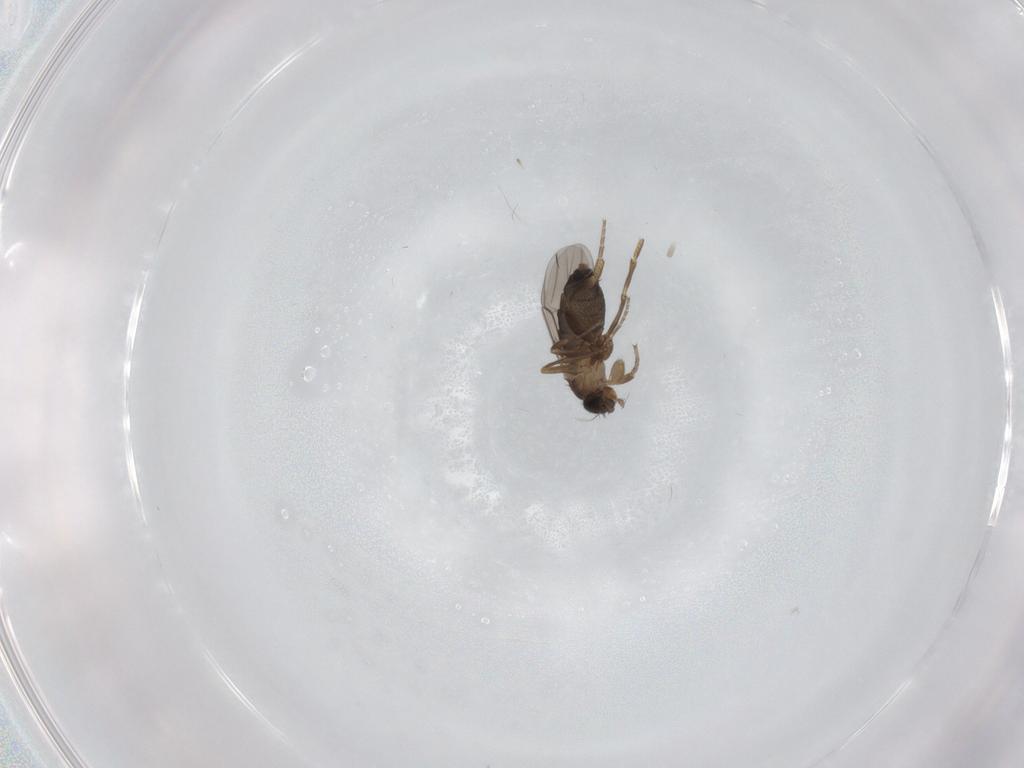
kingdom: Animalia
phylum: Arthropoda
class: Insecta
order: Diptera
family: Phoridae
